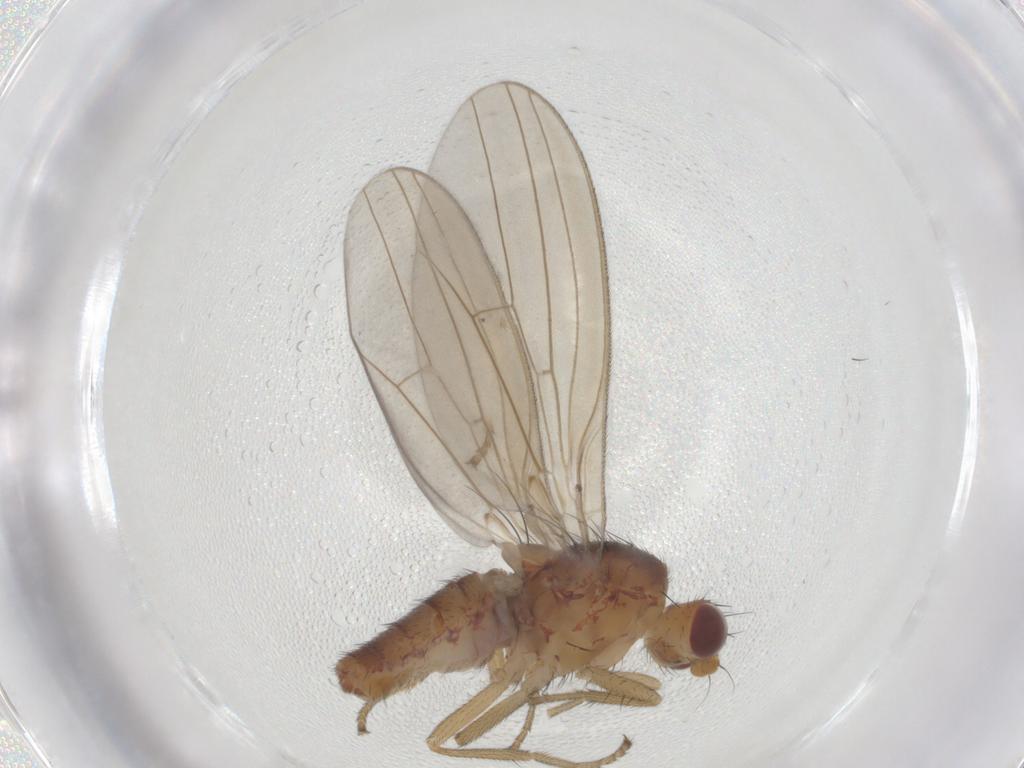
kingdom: Animalia
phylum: Arthropoda
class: Insecta
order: Diptera
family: Natalimyzidae
